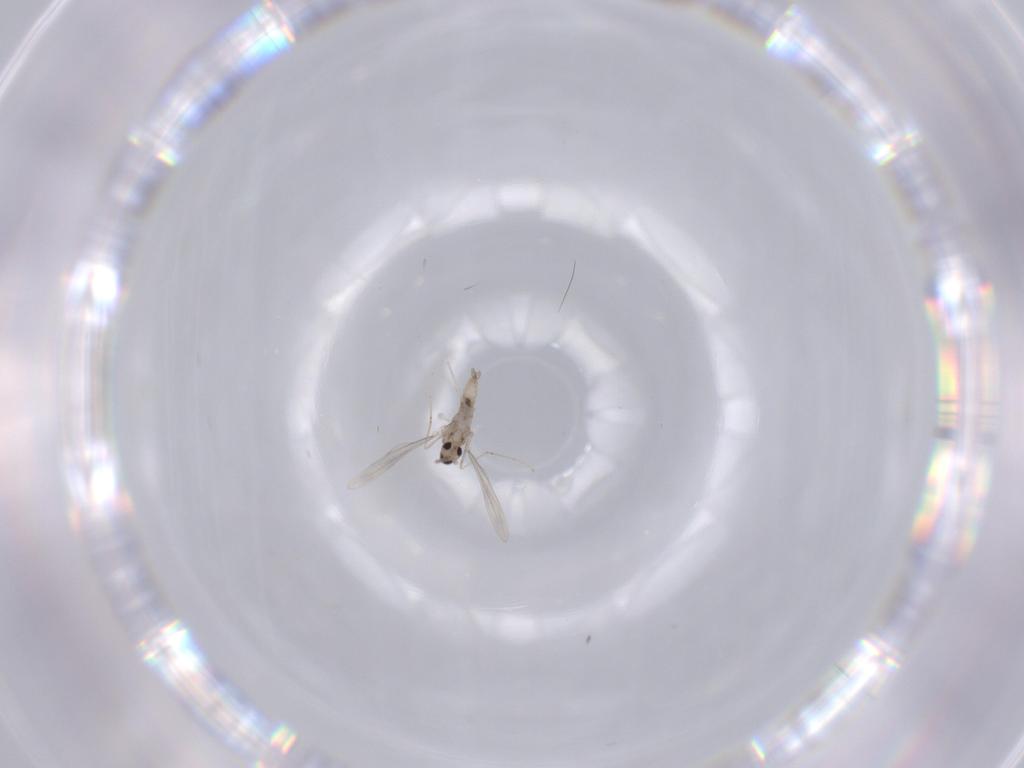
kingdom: Animalia
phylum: Arthropoda
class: Insecta
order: Diptera
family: Cecidomyiidae
